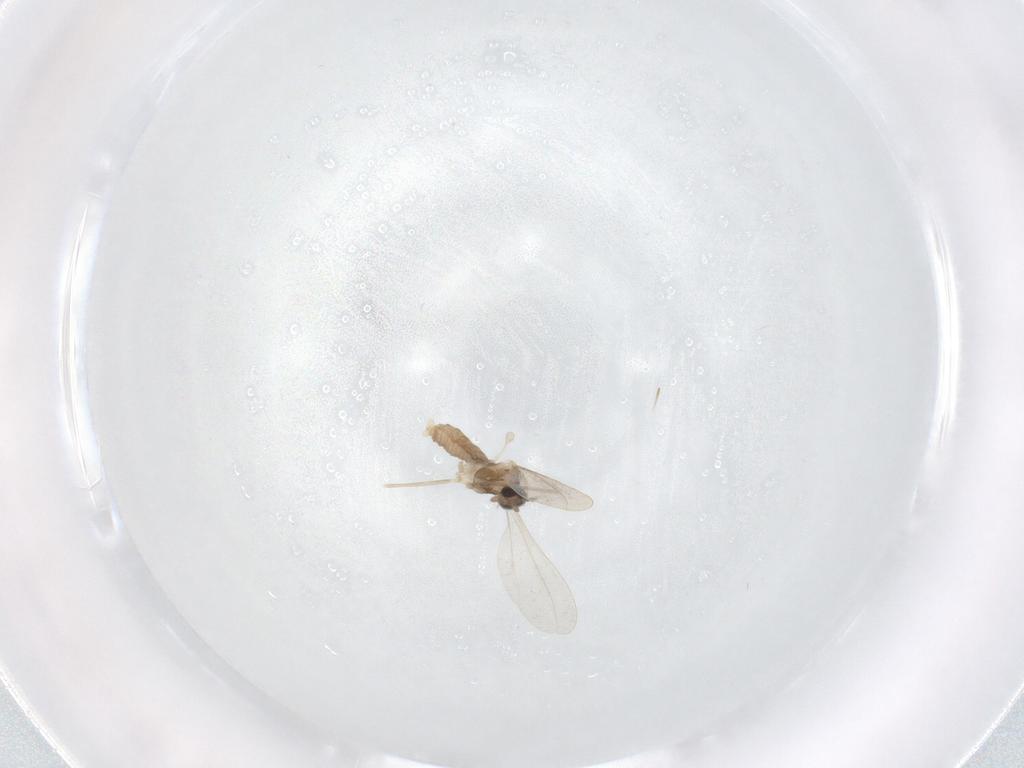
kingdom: Animalia
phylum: Arthropoda
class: Insecta
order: Diptera
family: Cecidomyiidae
